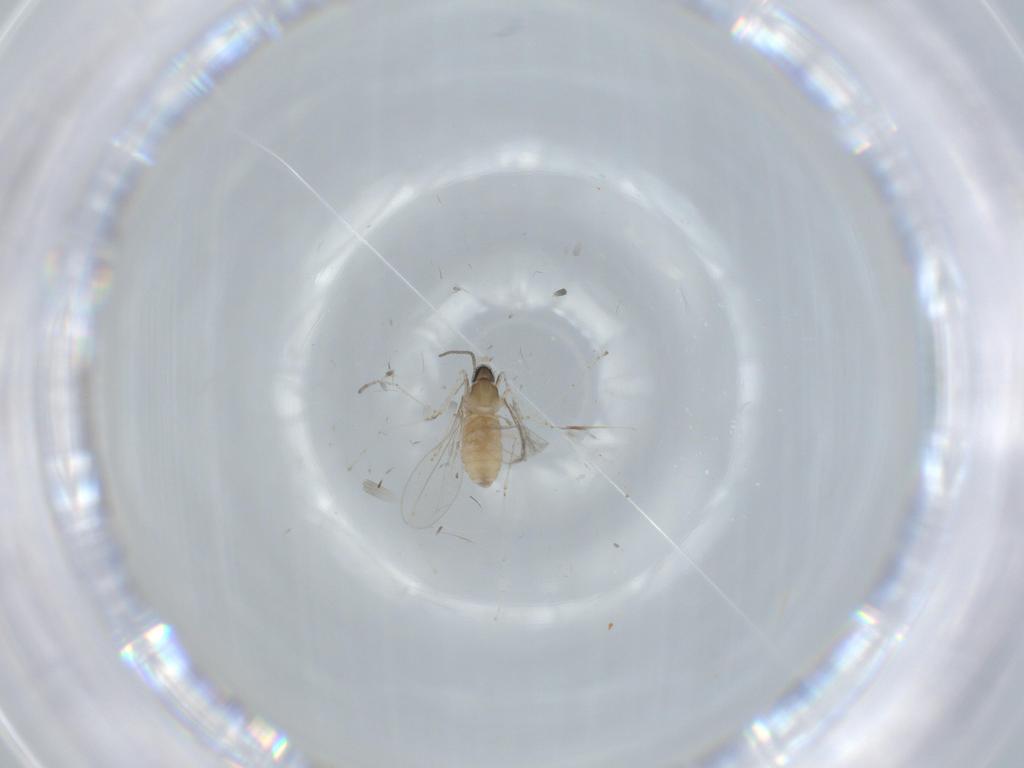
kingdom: Animalia
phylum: Arthropoda
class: Insecta
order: Diptera
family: Cecidomyiidae
